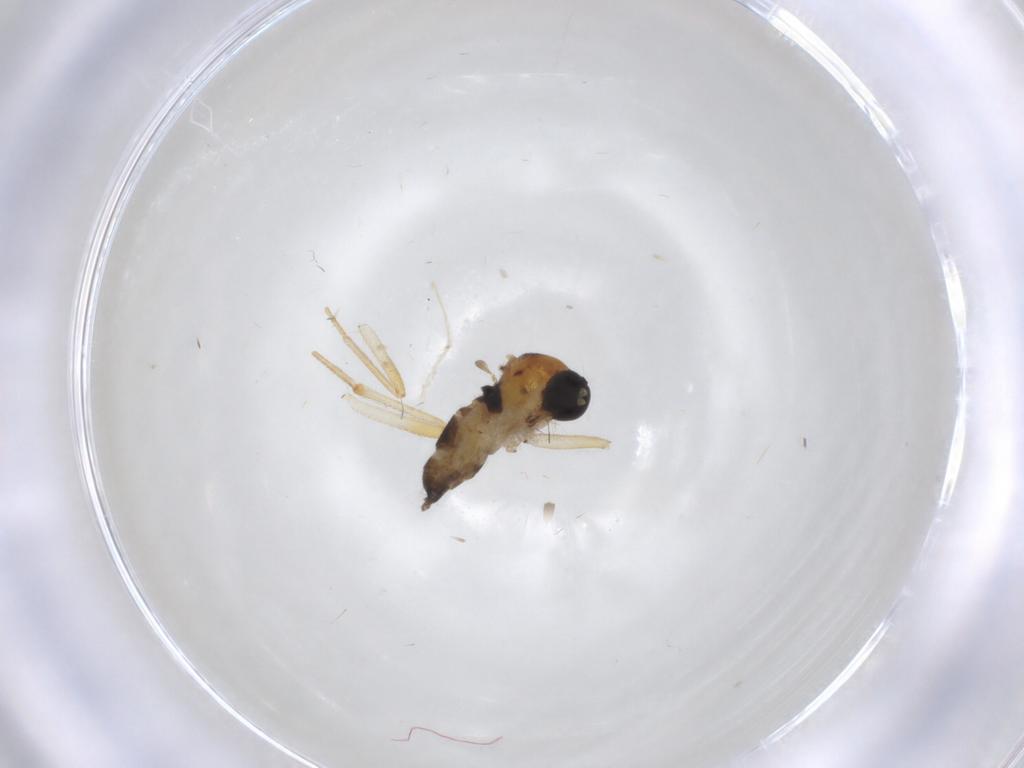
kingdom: Animalia
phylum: Arthropoda
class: Insecta
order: Diptera
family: Hybotidae
